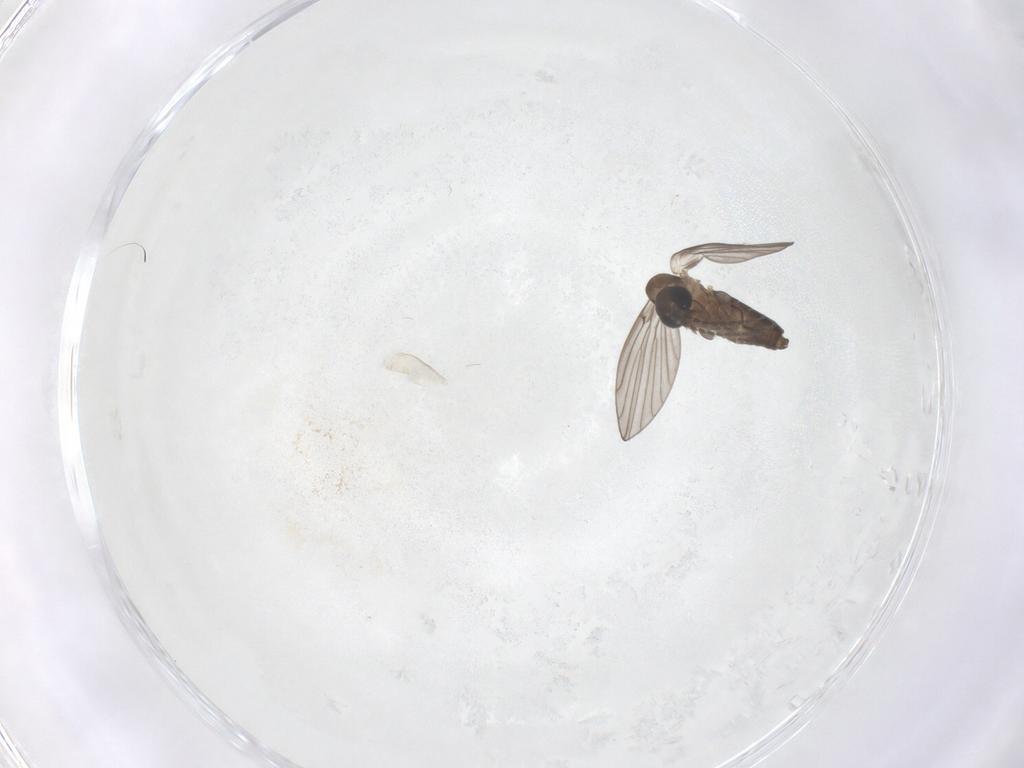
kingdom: Animalia
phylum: Arthropoda
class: Insecta
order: Diptera
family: Psychodidae
